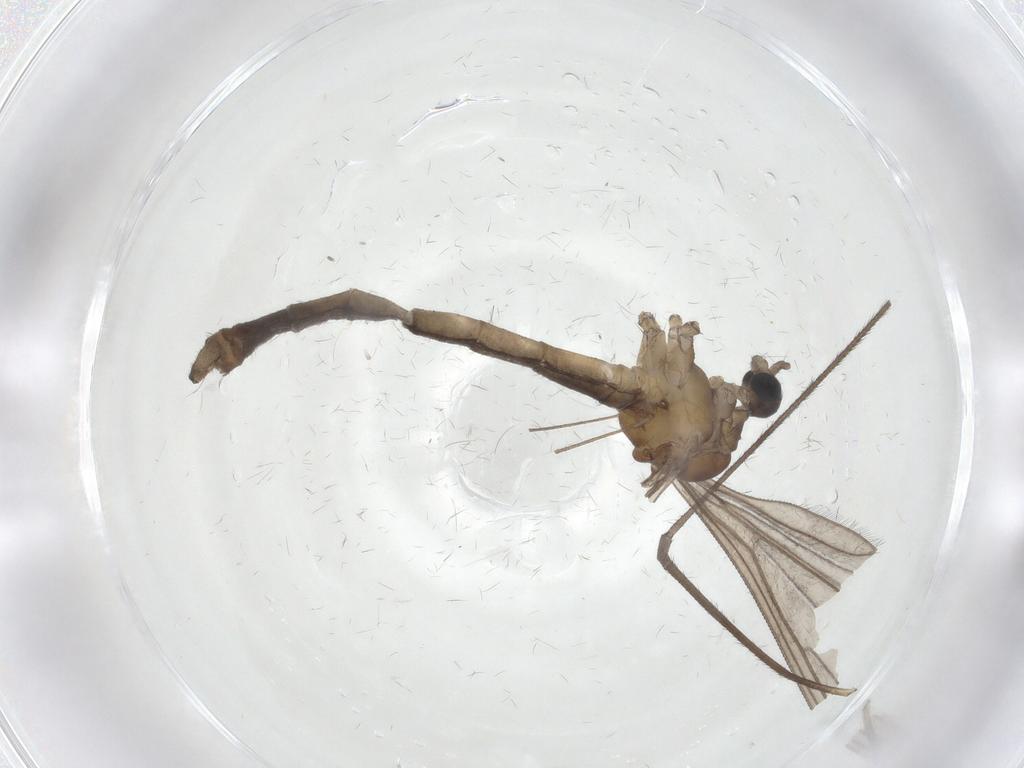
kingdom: Animalia
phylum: Arthropoda
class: Insecta
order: Diptera
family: Limoniidae
